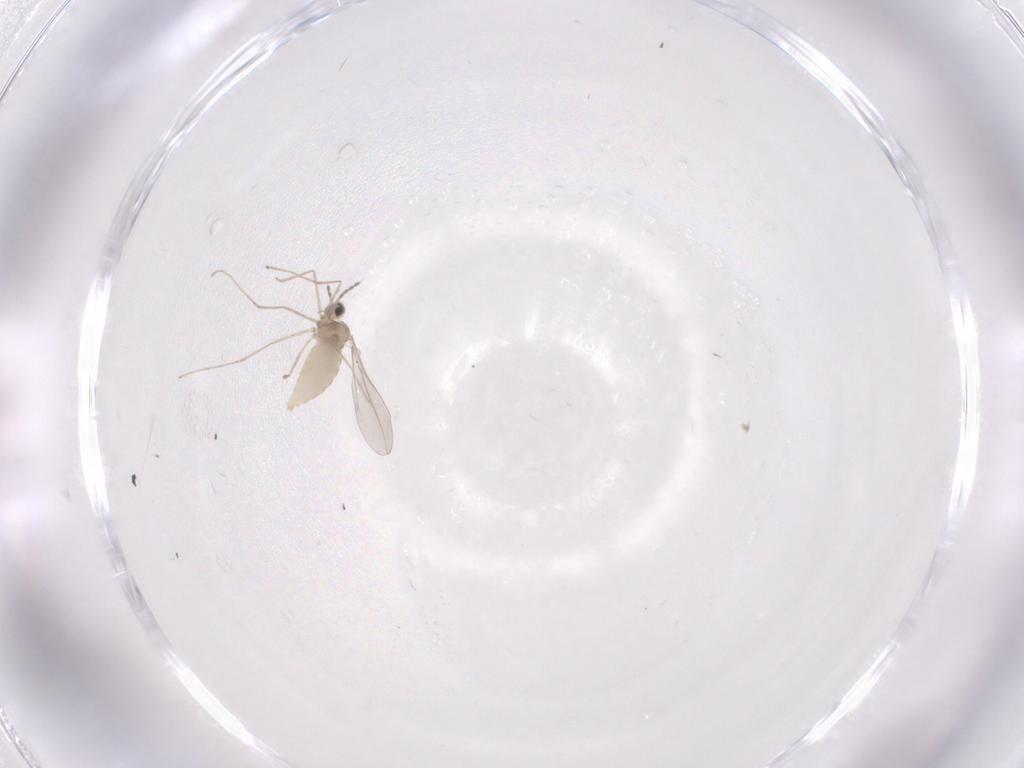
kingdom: Animalia
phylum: Arthropoda
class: Insecta
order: Diptera
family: Cecidomyiidae
